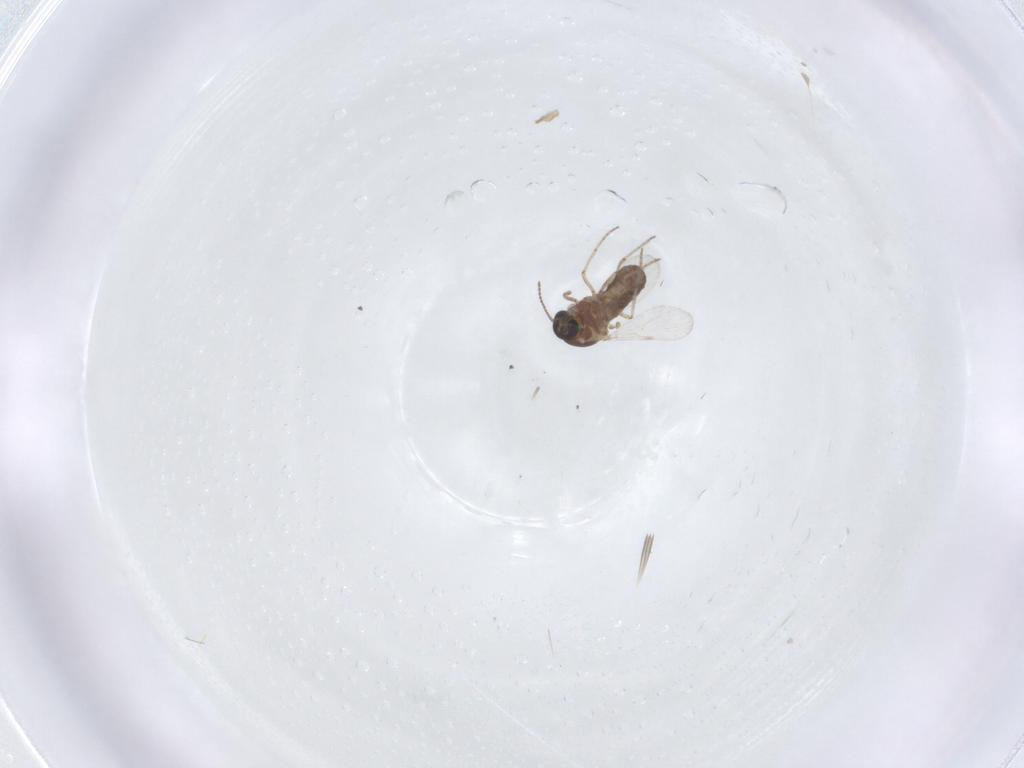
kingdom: Animalia
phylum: Arthropoda
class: Insecta
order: Diptera
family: Ceratopogonidae
